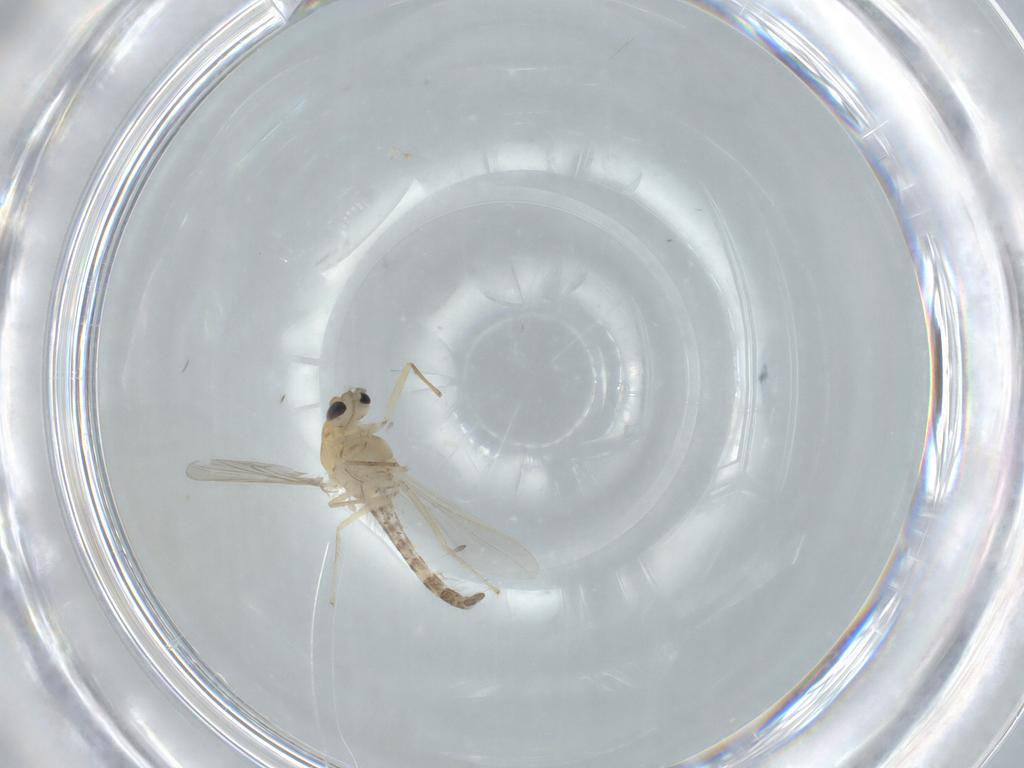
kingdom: Animalia
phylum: Arthropoda
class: Insecta
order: Diptera
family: Chironomidae
